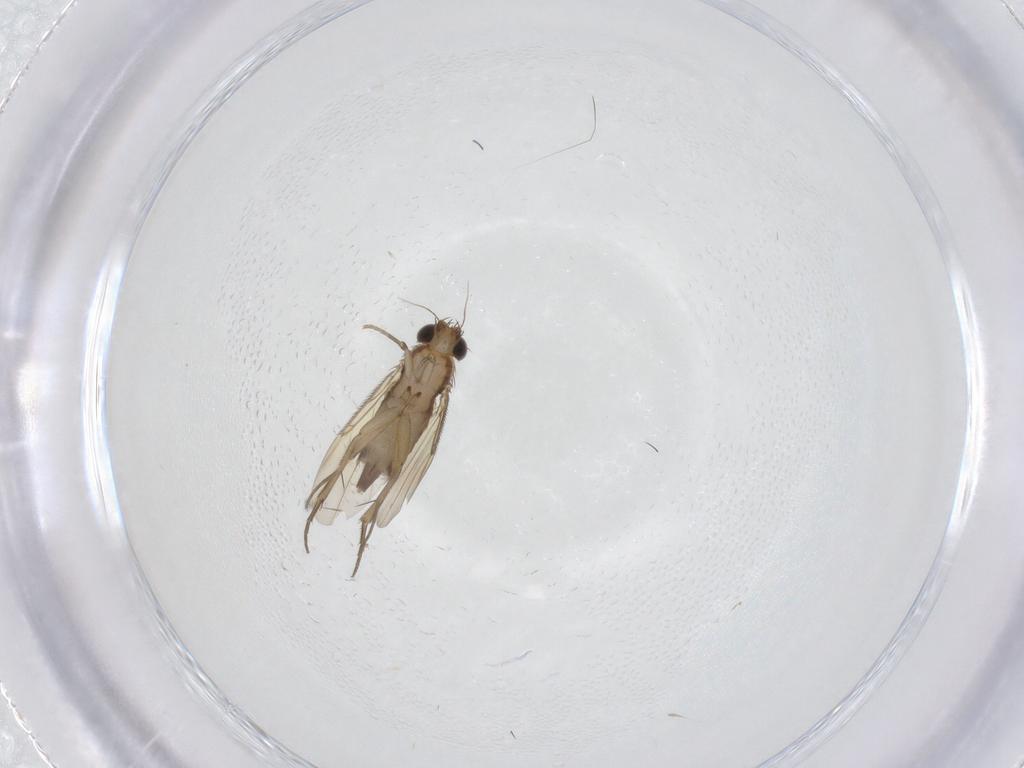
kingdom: Animalia
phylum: Arthropoda
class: Insecta
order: Diptera
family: Phoridae
